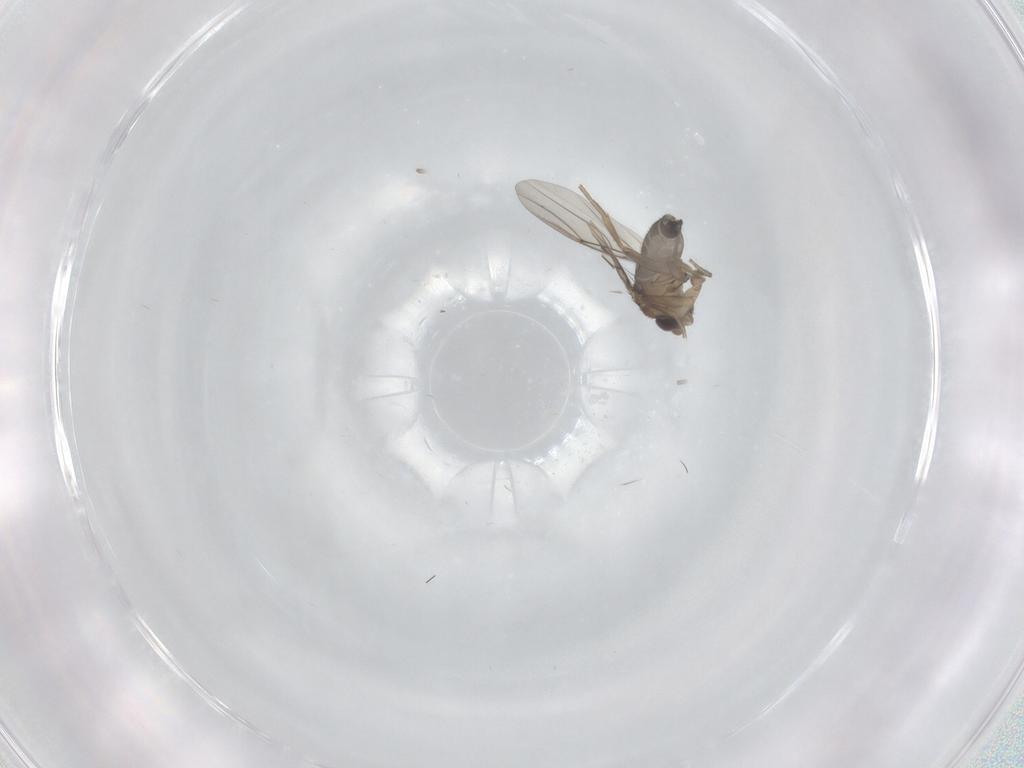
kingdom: Animalia
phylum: Arthropoda
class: Insecta
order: Diptera
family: Phoridae
